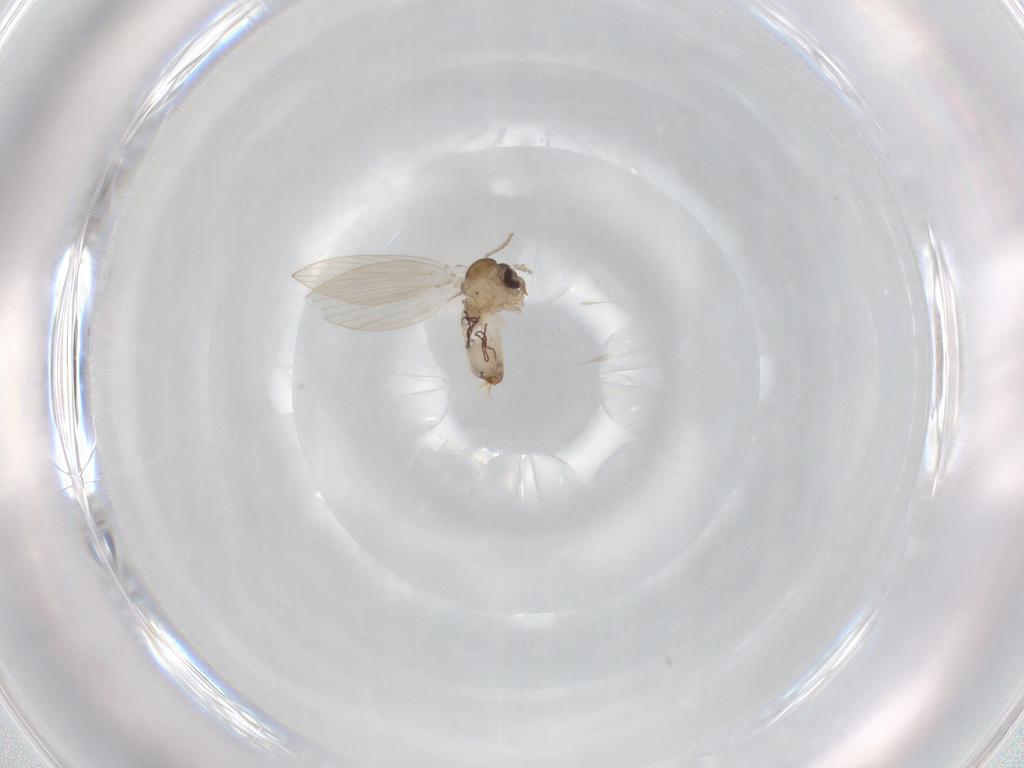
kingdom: Animalia
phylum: Arthropoda
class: Insecta
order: Diptera
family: Psychodidae
